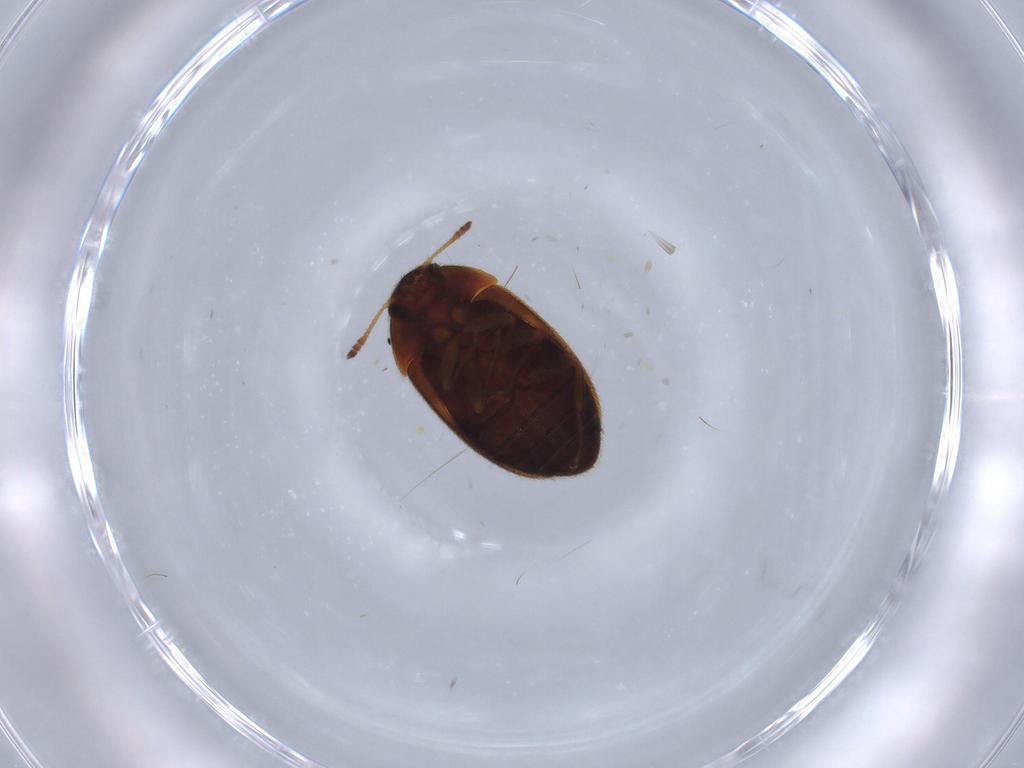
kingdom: Animalia
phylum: Arthropoda
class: Insecta
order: Coleoptera
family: Mycetophagidae
